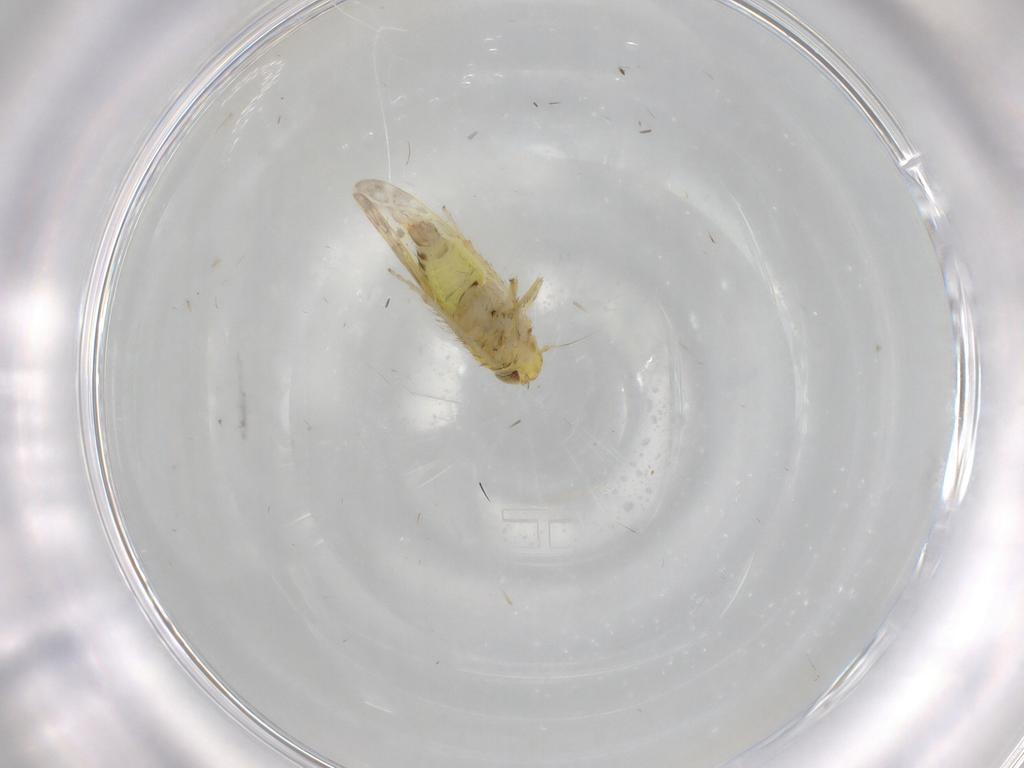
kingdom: Animalia
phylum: Arthropoda
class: Insecta
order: Hemiptera
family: Cicadellidae
